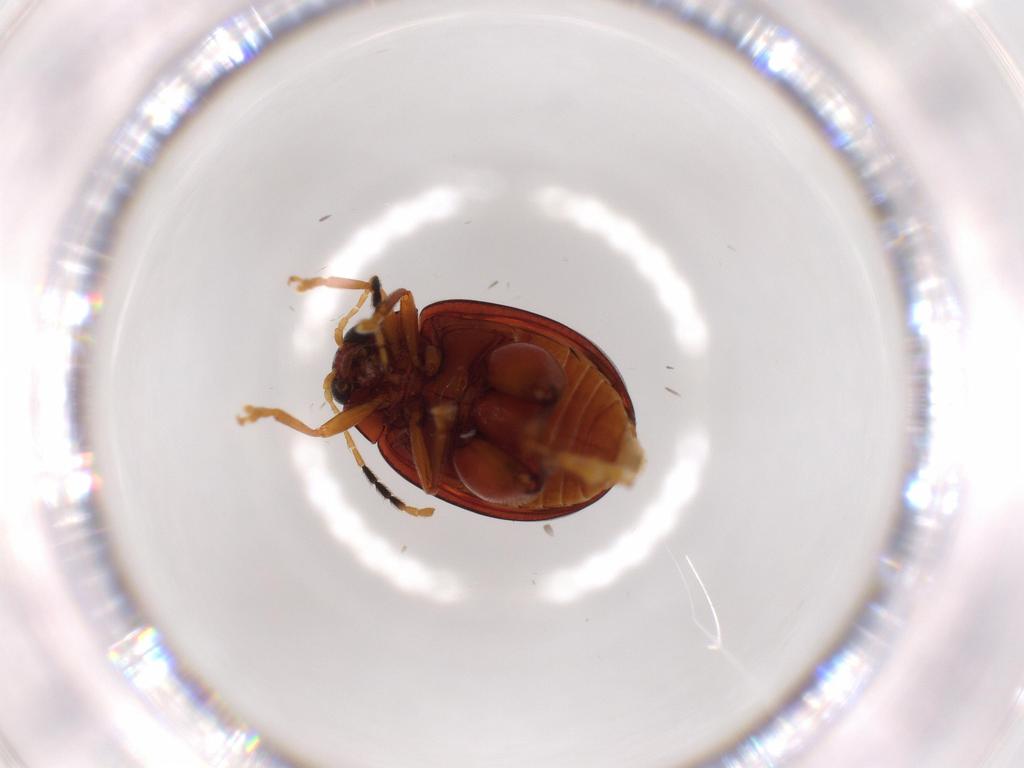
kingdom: Animalia
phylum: Arthropoda
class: Insecta
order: Coleoptera
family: Chrysomelidae
